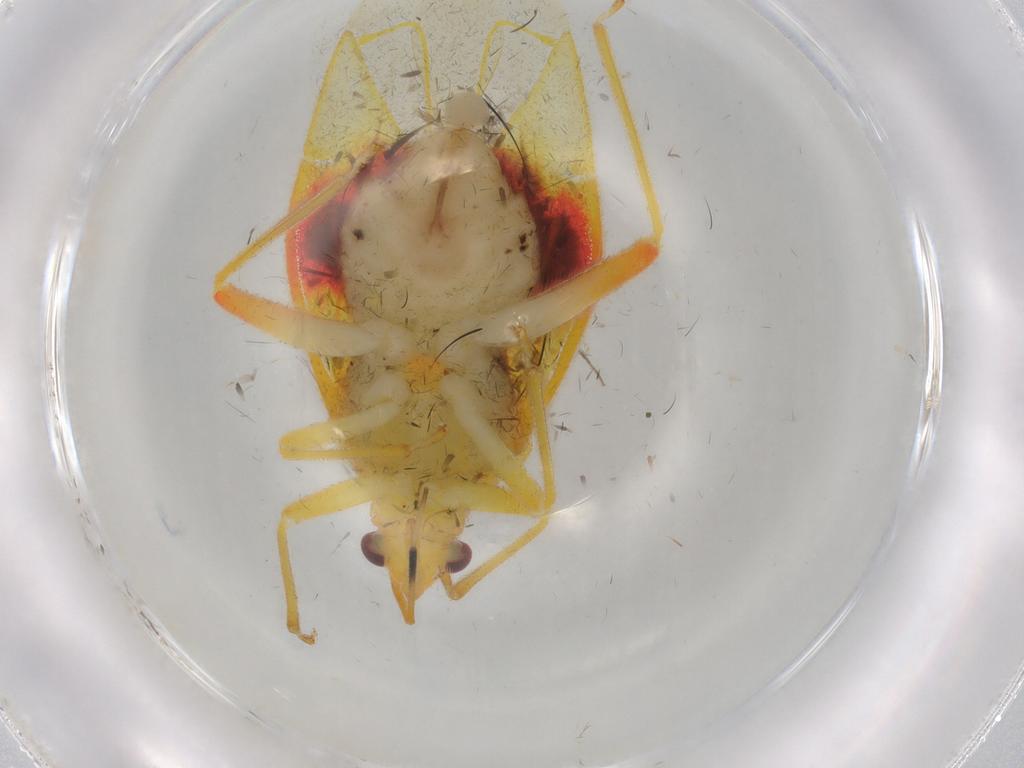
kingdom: Animalia
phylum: Arthropoda
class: Insecta
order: Hemiptera
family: Miridae
